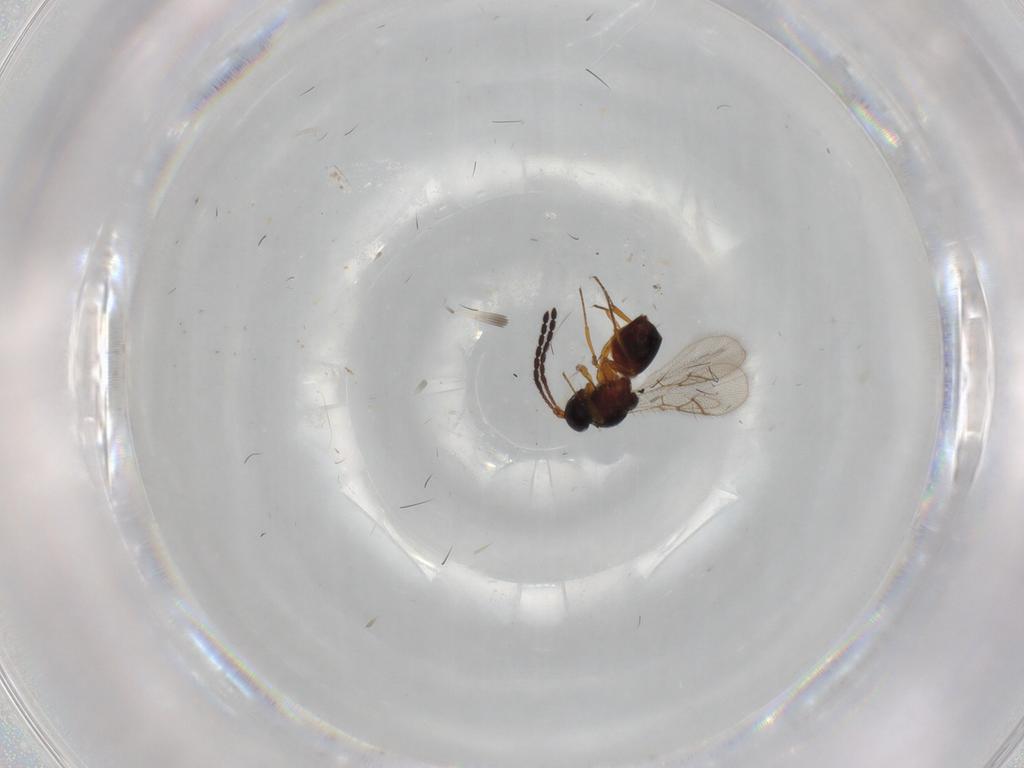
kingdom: Animalia
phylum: Arthropoda
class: Insecta
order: Hymenoptera
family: Figitidae
